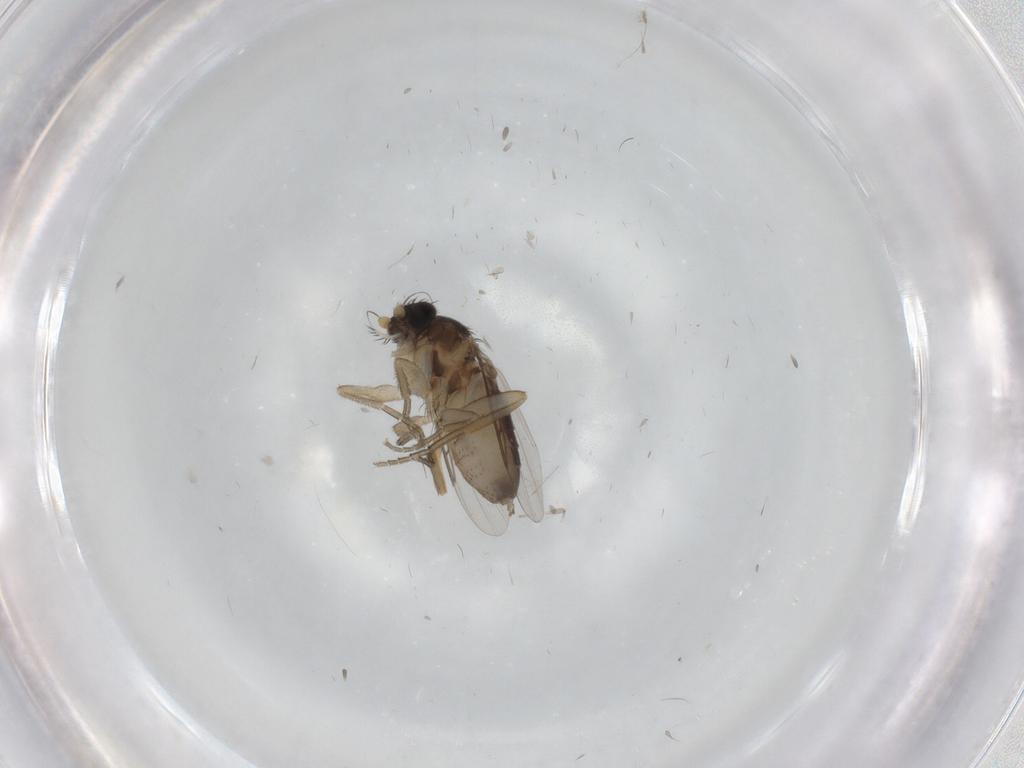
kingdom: Animalia
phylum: Arthropoda
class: Insecta
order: Diptera
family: Phoridae
